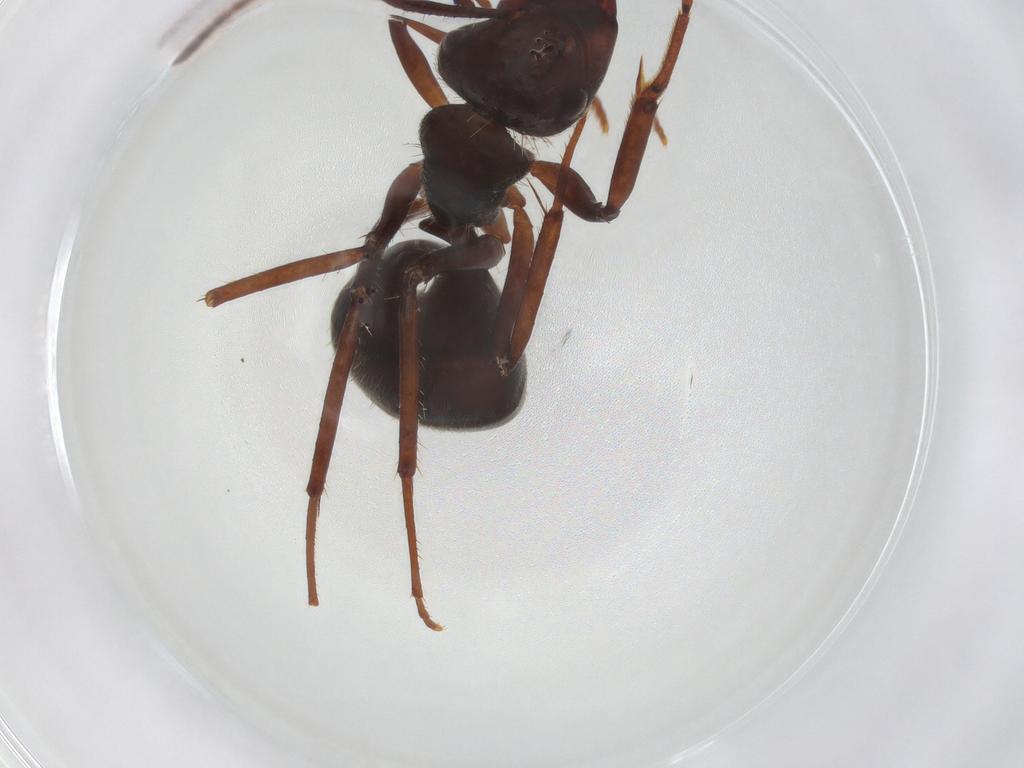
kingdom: Animalia
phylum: Arthropoda
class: Insecta
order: Hymenoptera
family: Formicidae
